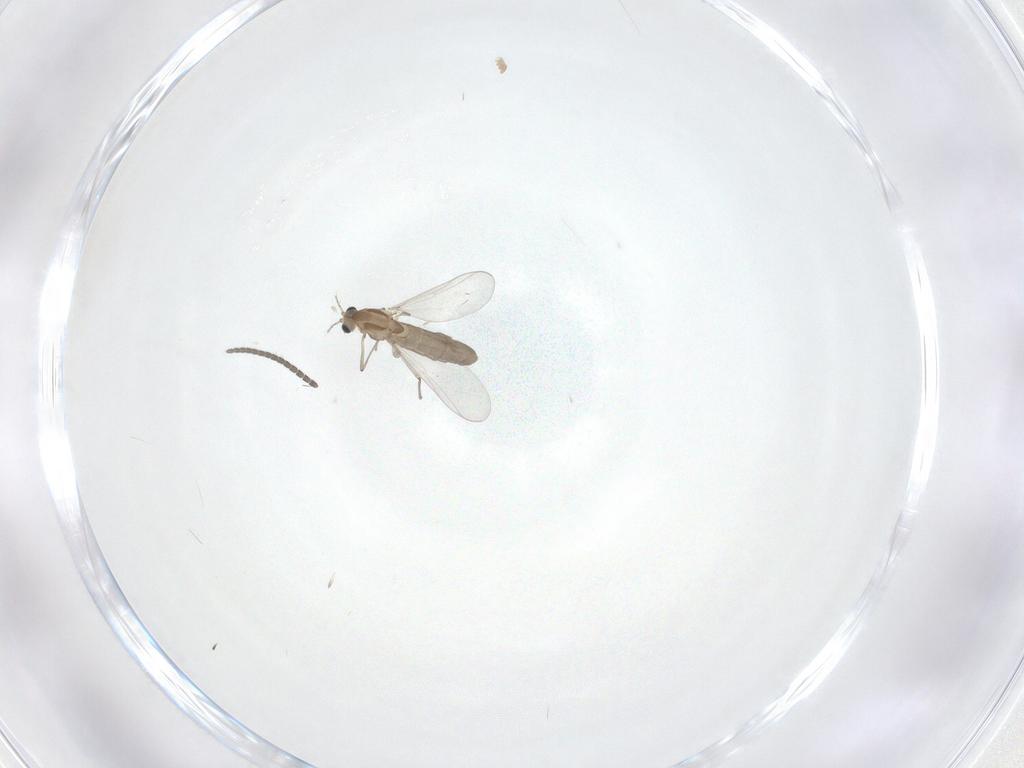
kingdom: Animalia
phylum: Arthropoda
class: Insecta
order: Diptera
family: Chironomidae
